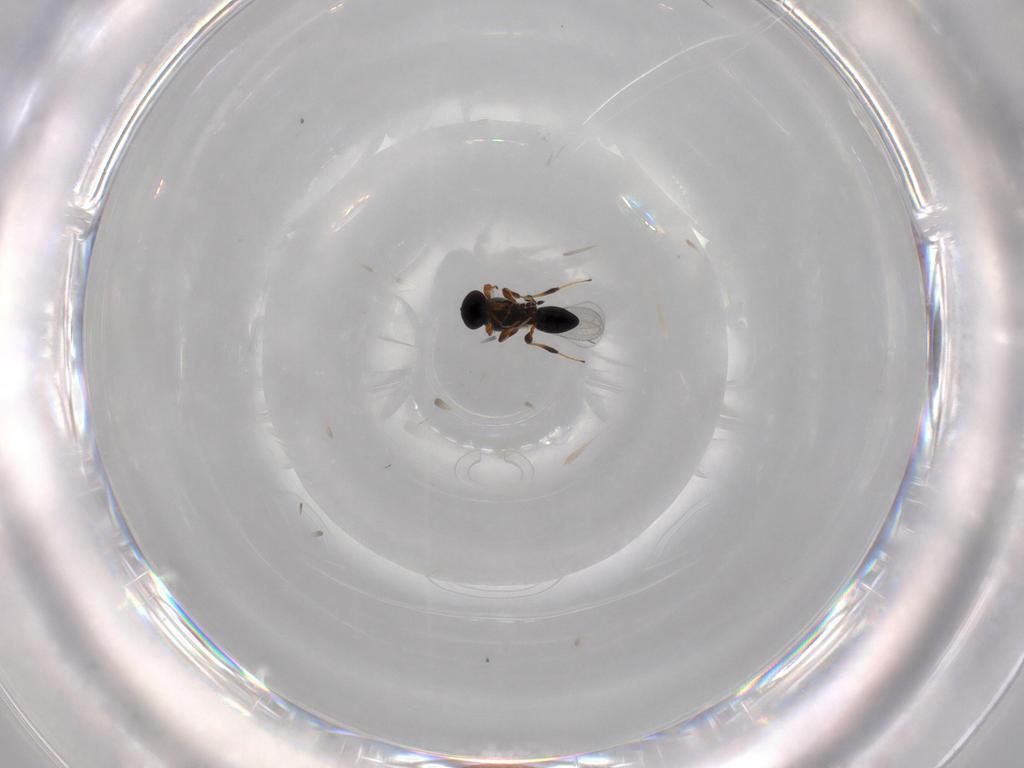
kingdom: Animalia
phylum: Arthropoda
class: Insecta
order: Hymenoptera
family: Platygastridae
